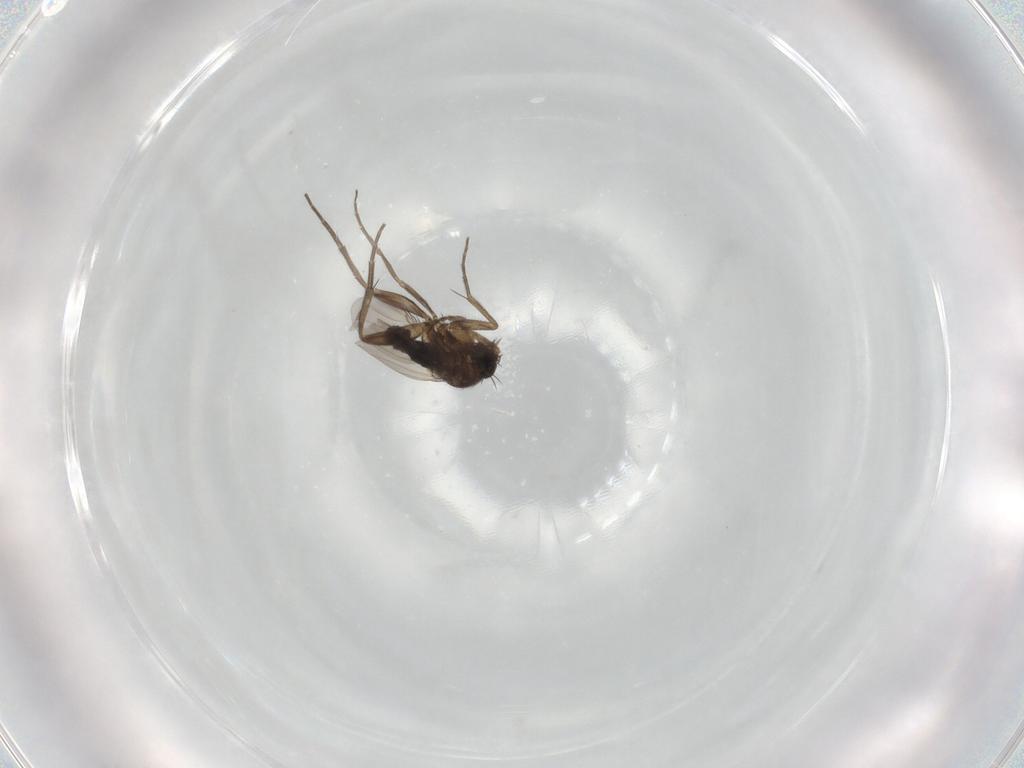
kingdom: Animalia
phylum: Arthropoda
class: Insecta
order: Diptera
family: Phoridae
